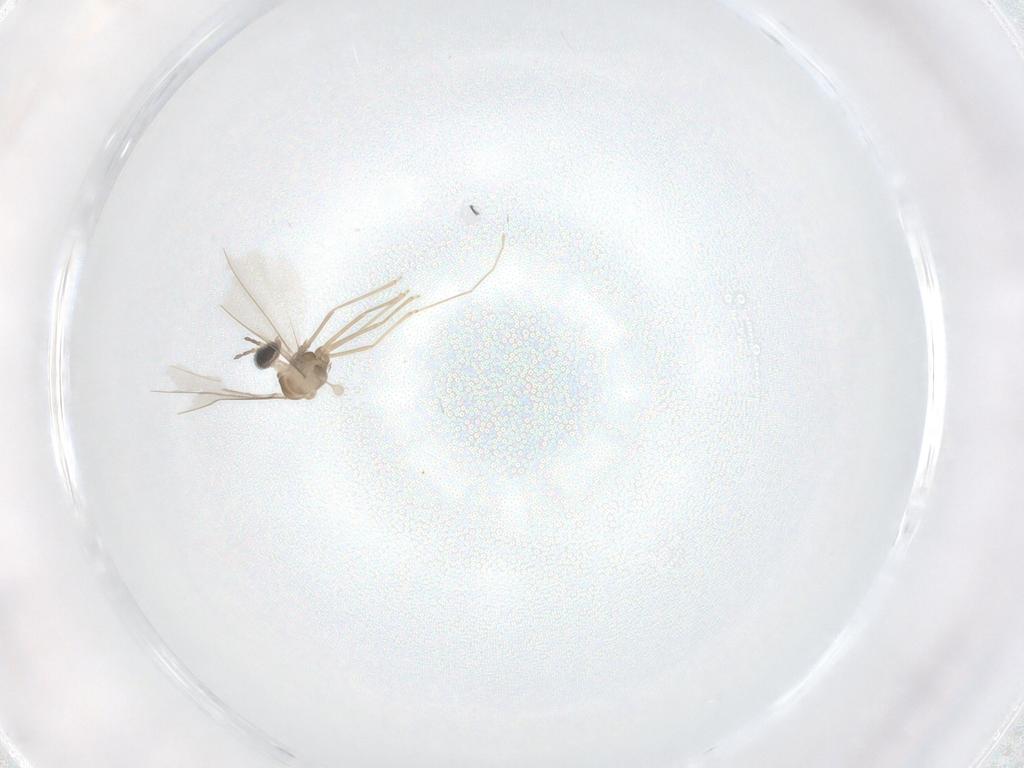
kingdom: Animalia
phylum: Arthropoda
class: Insecta
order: Diptera
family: Cecidomyiidae
